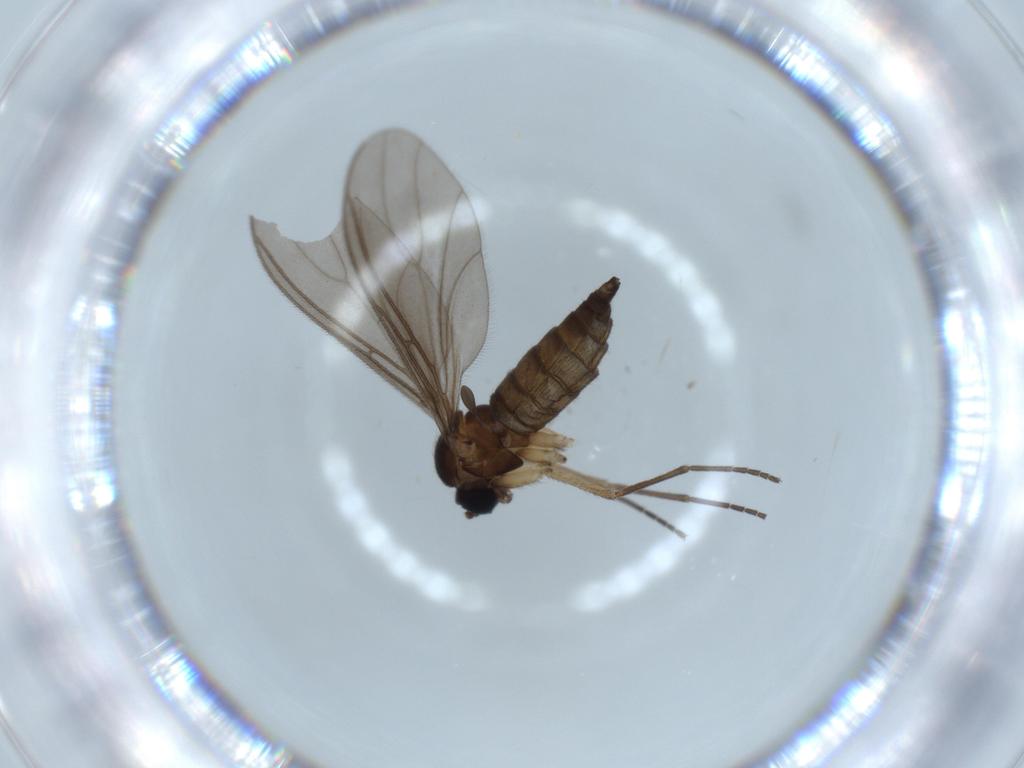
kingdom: Animalia
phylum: Arthropoda
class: Insecta
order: Diptera
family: Sciaridae
